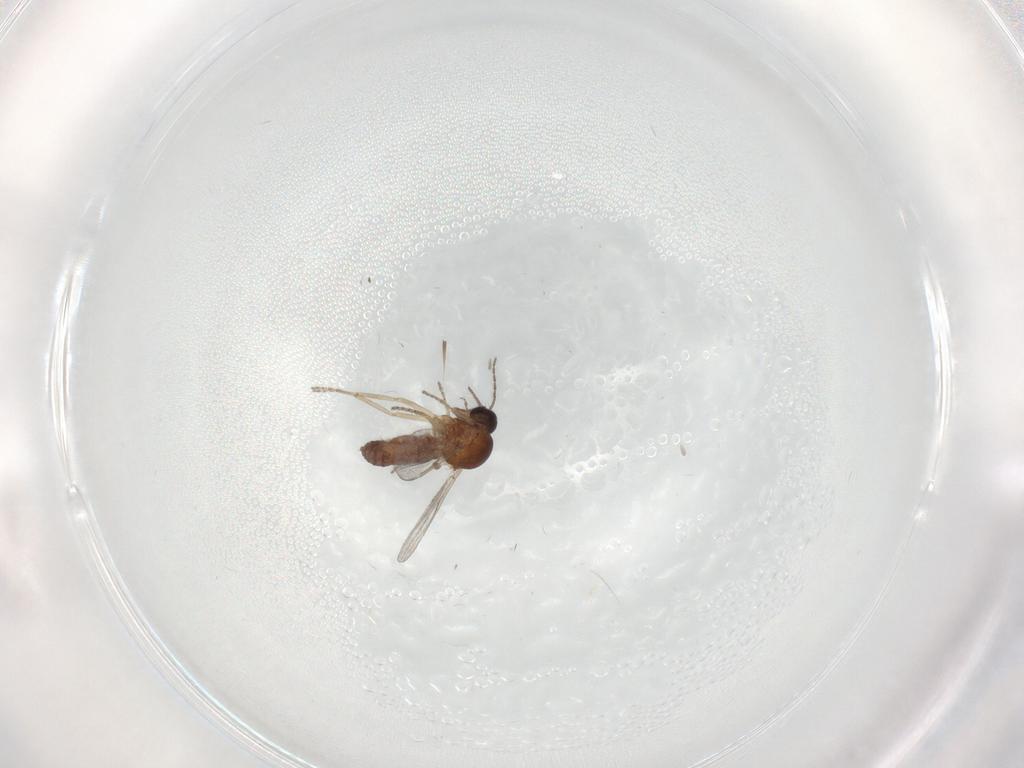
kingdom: Animalia
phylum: Arthropoda
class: Insecta
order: Diptera
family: Ceratopogonidae
